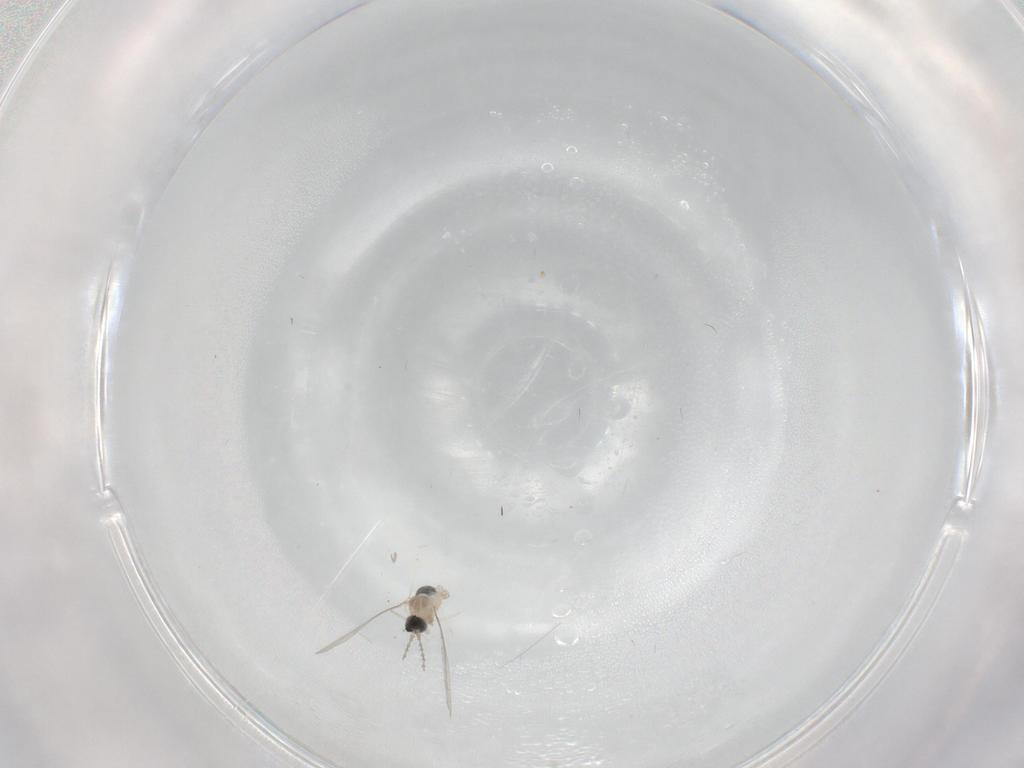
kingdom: Animalia
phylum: Arthropoda
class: Insecta
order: Diptera
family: Cecidomyiidae
